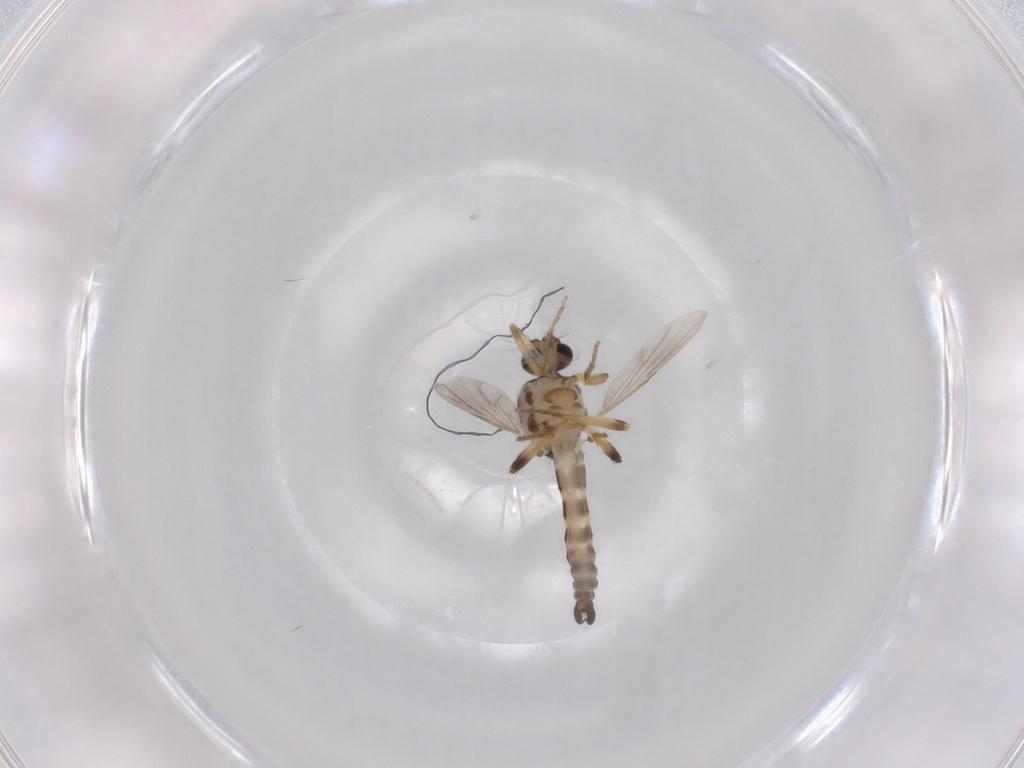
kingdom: Animalia
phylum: Arthropoda
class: Insecta
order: Diptera
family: Ceratopogonidae
